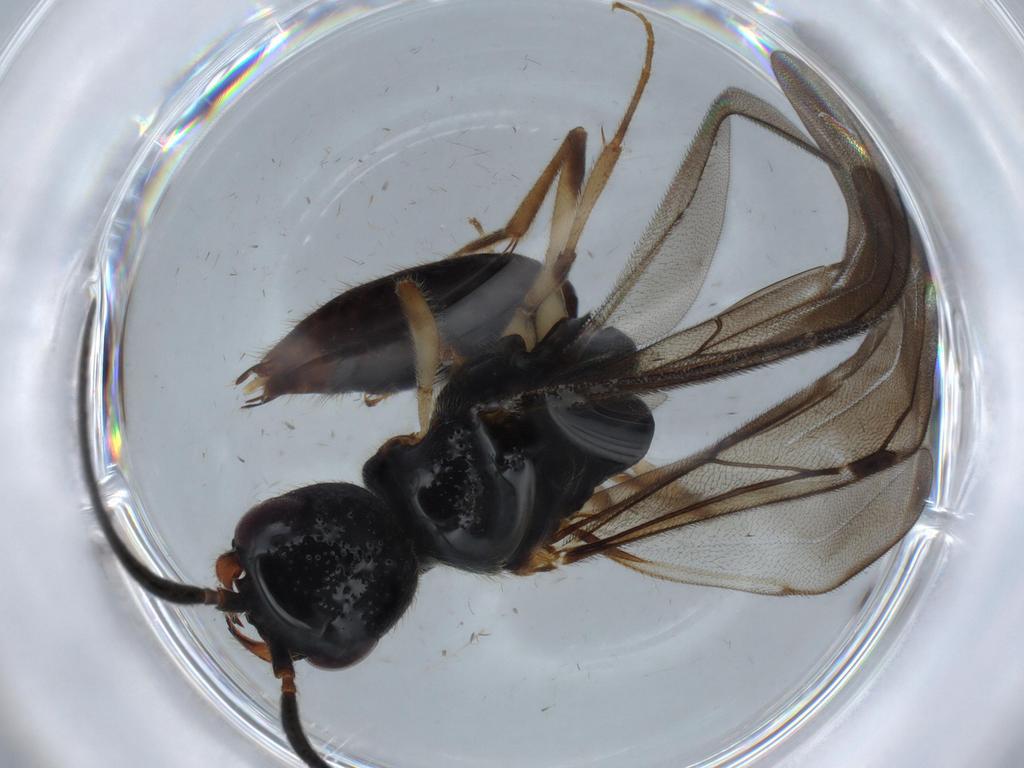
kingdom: Animalia
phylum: Arthropoda
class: Insecta
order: Hymenoptera
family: Bethylidae
